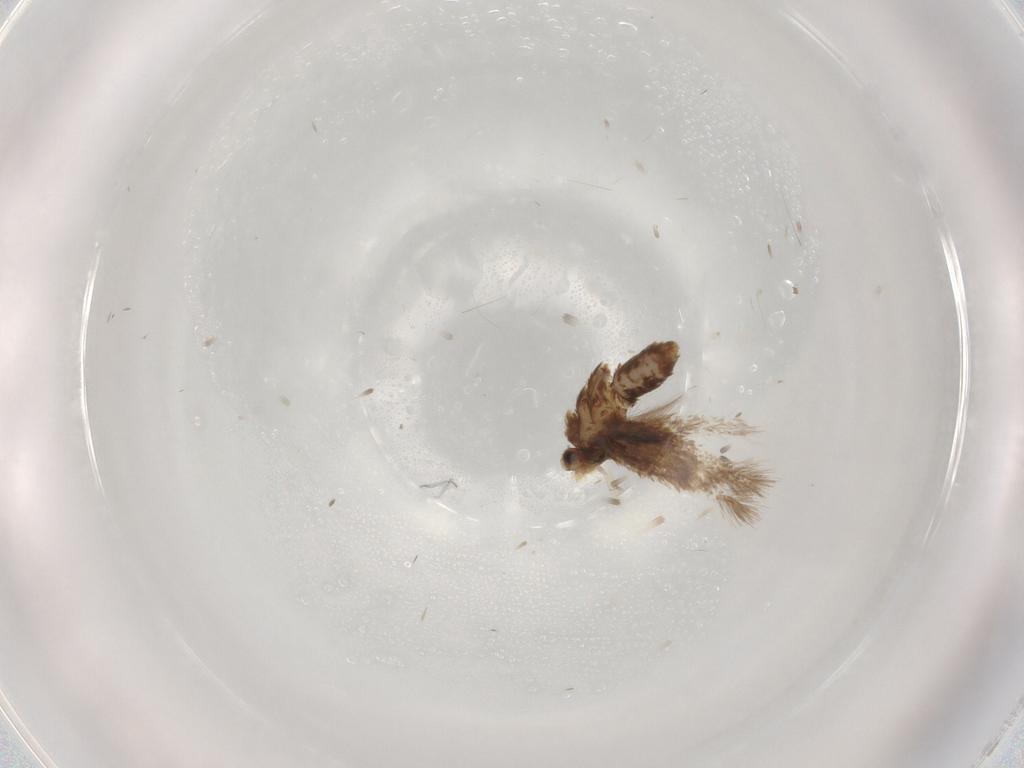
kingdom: Animalia
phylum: Arthropoda
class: Insecta
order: Lepidoptera
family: Nepticulidae
